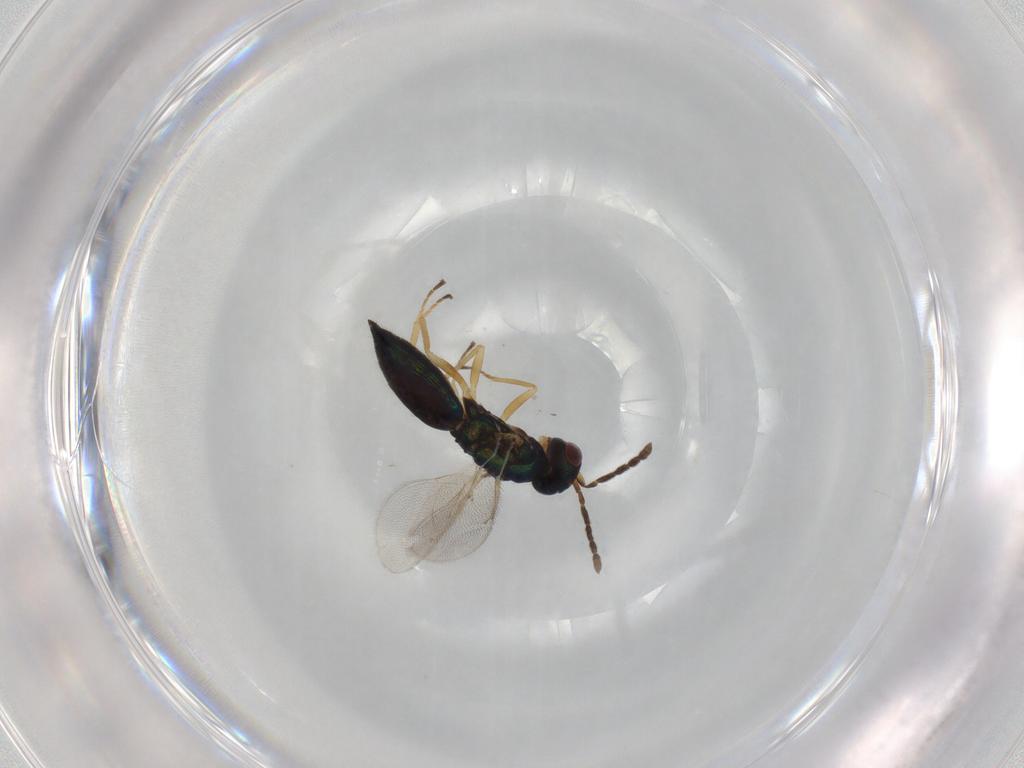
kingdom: Animalia
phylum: Arthropoda
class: Insecta
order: Hymenoptera
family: Eulophidae
